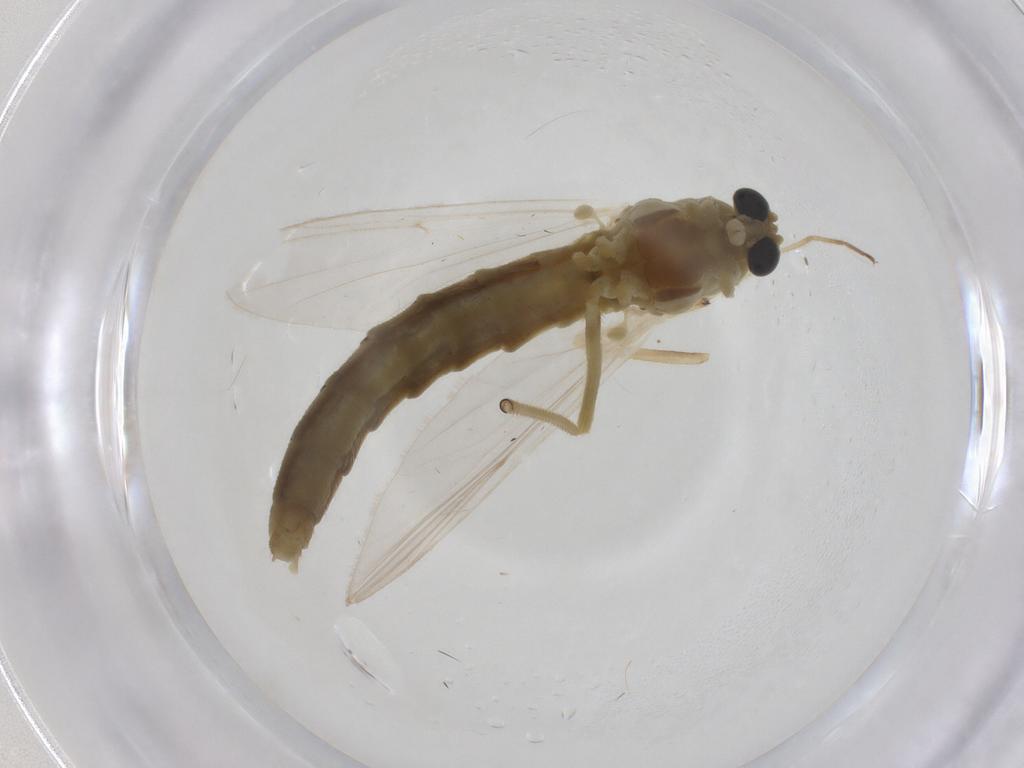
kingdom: Animalia
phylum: Arthropoda
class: Insecta
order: Diptera
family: Chironomidae
